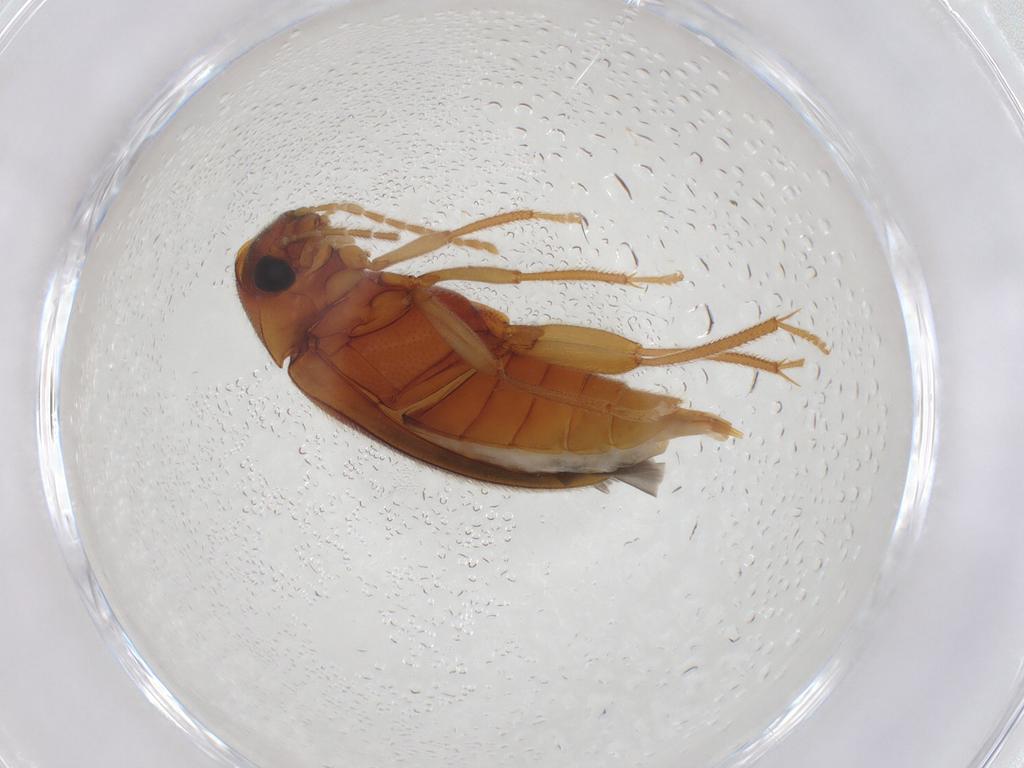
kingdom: Animalia
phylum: Arthropoda
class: Insecta
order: Coleoptera
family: Ptilodactylidae
